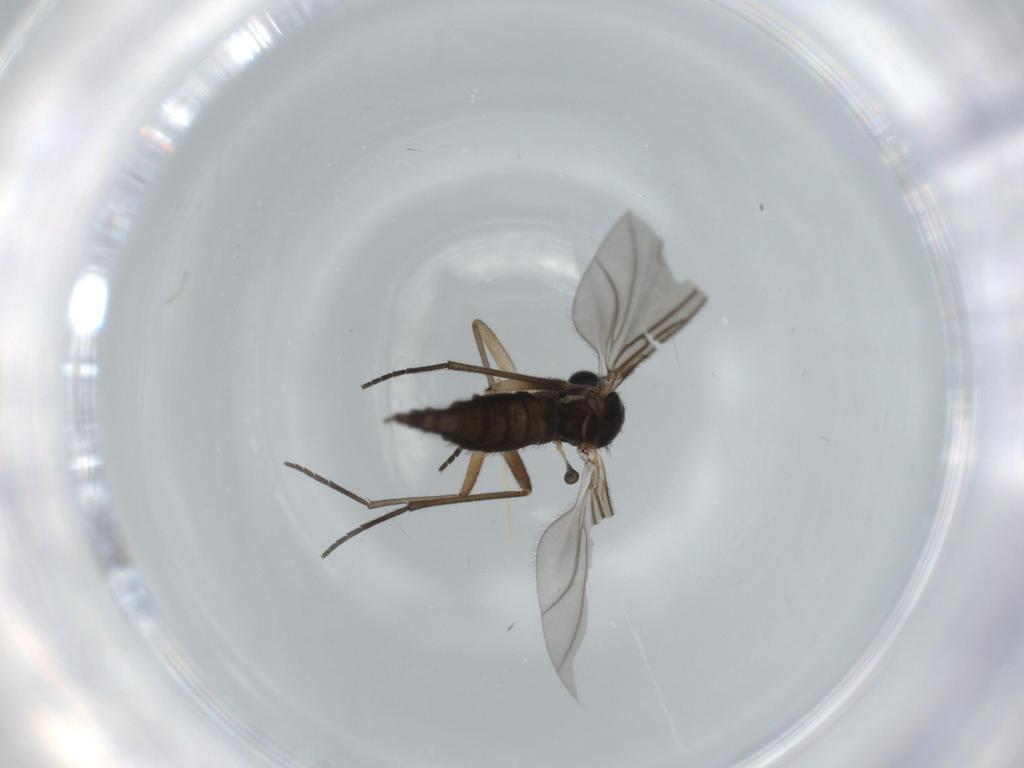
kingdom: Animalia
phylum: Arthropoda
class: Insecta
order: Diptera
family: Cecidomyiidae
